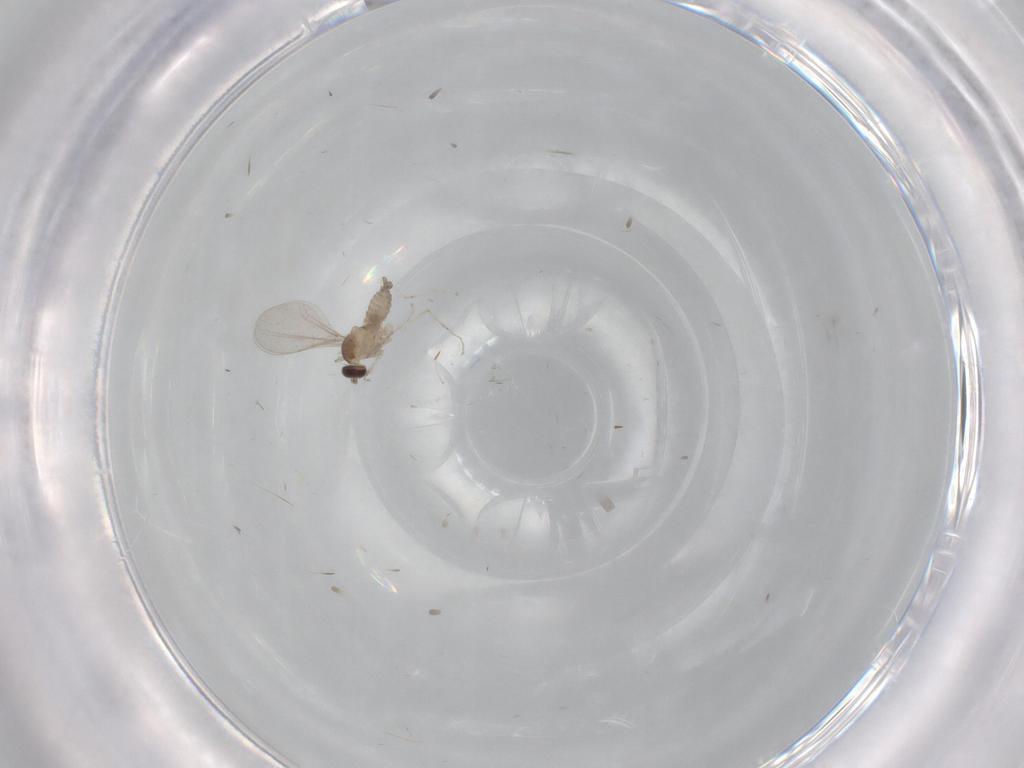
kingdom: Animalia
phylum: Arthropoda
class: Insecta
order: Diptera
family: Cecidomyiidae
